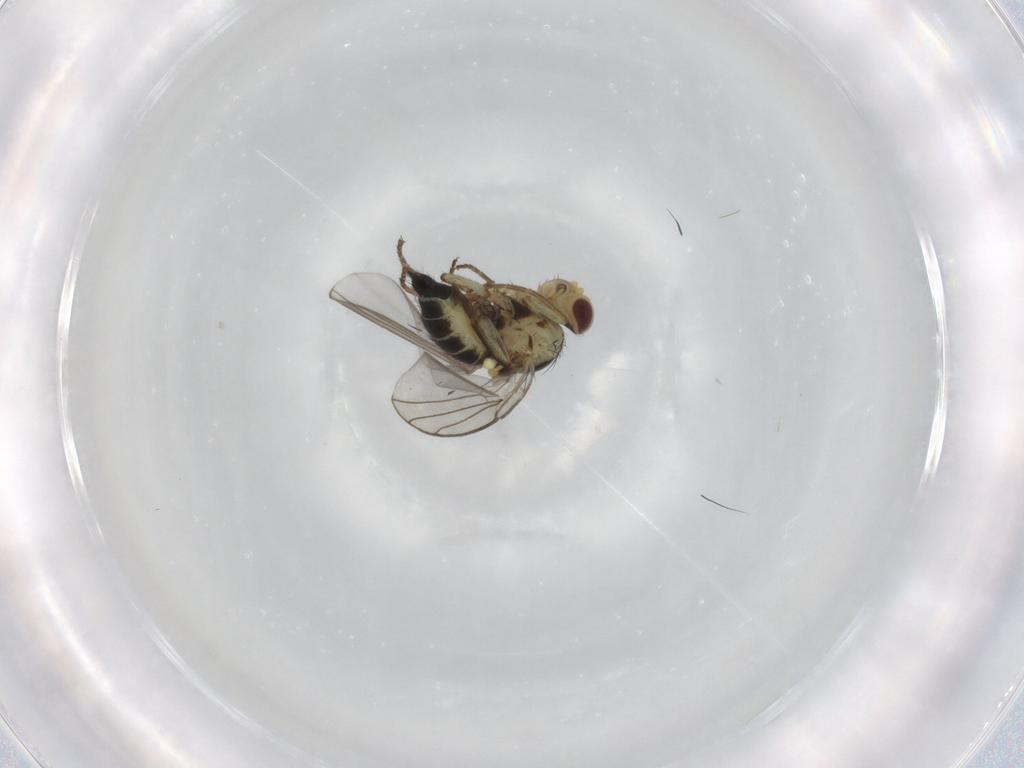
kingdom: Animalia
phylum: Arthropoda
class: Insecta
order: Diptera
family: Agromyzidae
